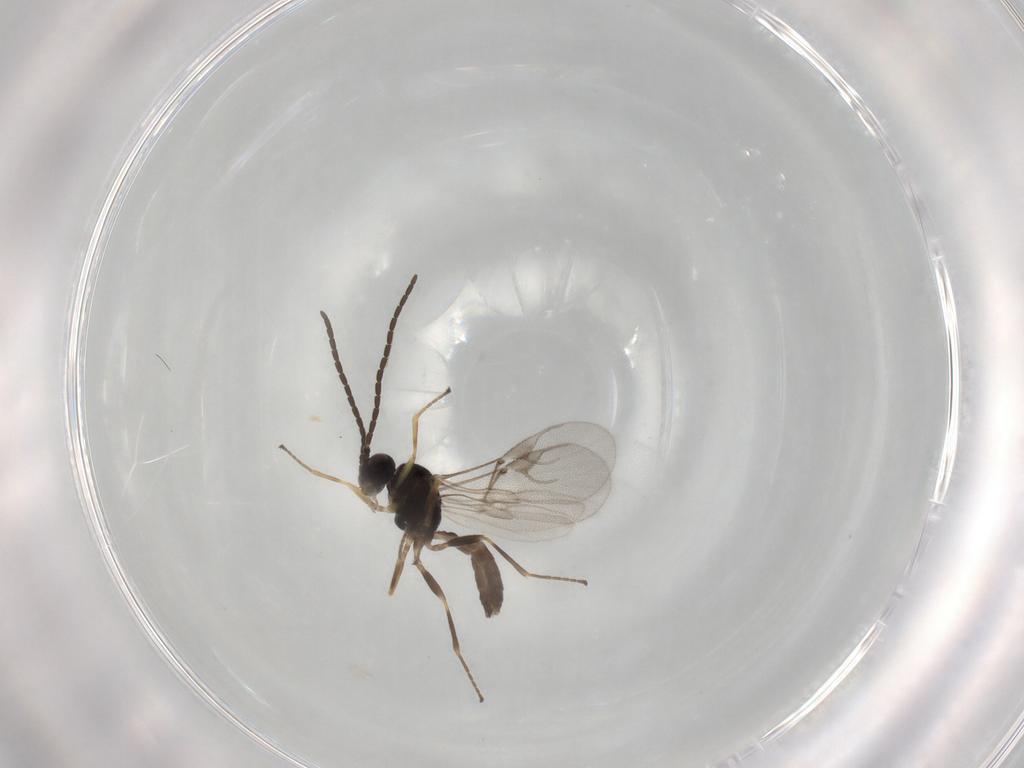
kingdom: Animalia
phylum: Arthropoda
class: Insecta
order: Hymenoptera
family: Braconidae
